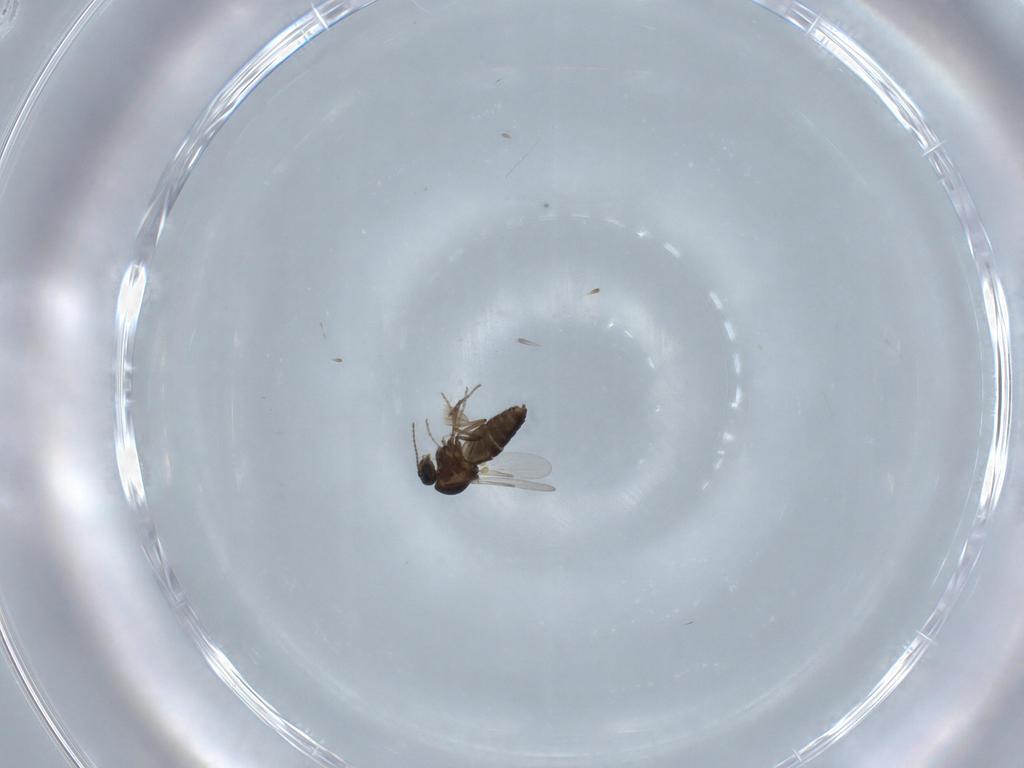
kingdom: Animalia
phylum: Arthropoda
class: Insecta
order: Diptera
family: Ceratopogonidae
